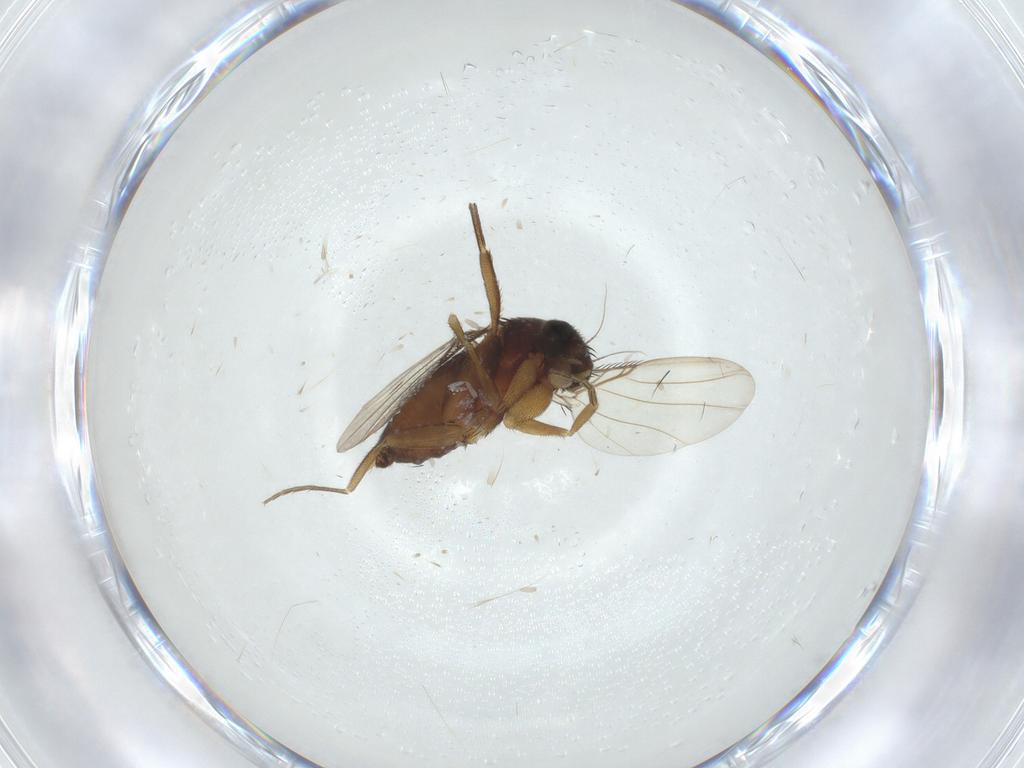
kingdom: Animalia
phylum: Arthropoda
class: Insecta
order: Diptera
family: Phoridae
